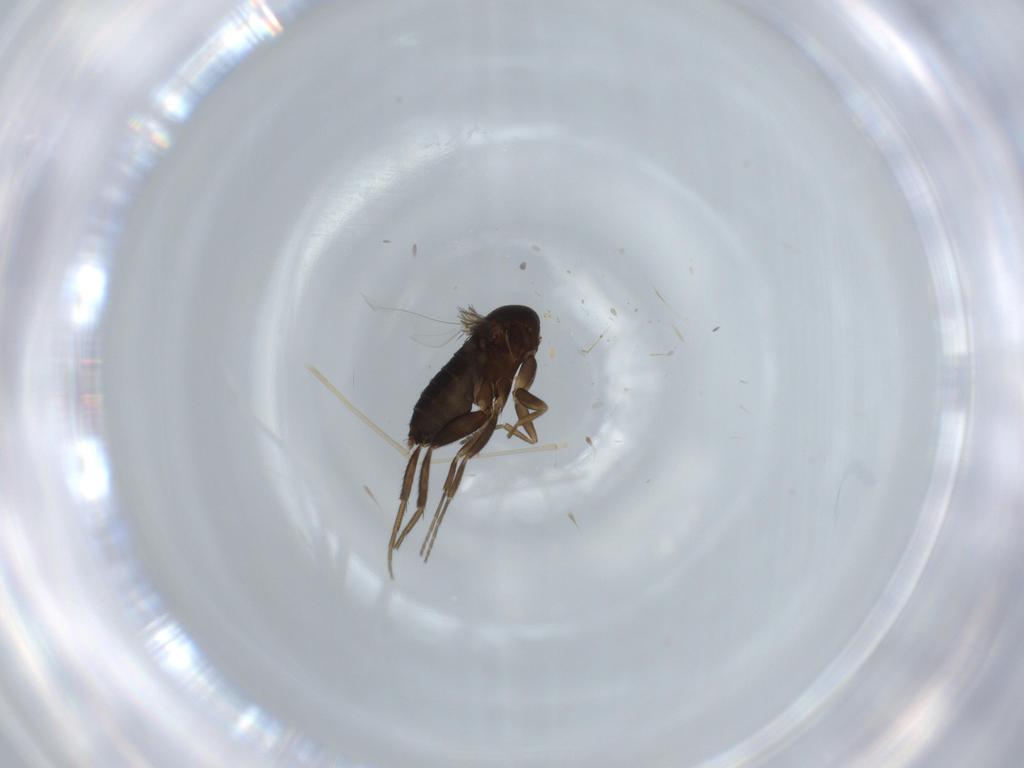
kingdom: Animalia
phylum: Arthropoda
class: Insecta
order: Diptera
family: Phoridae
